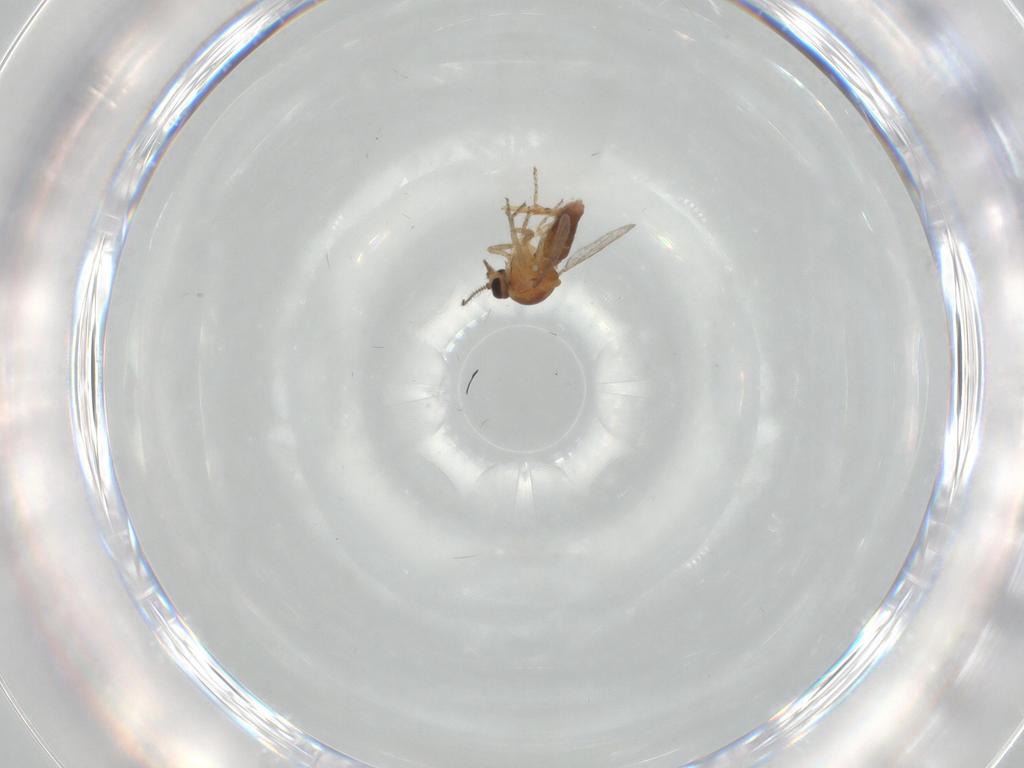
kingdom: Animalia
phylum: Arthropoda
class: Insecta
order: Diptera
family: Ceratopogonidae
